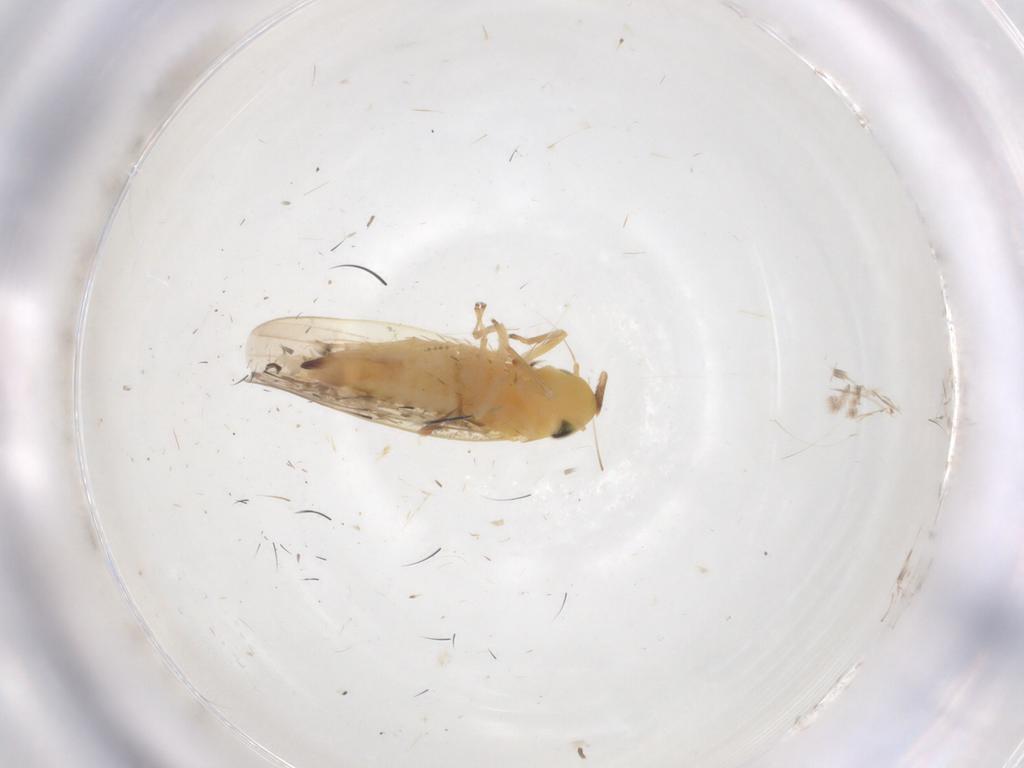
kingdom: Animalia
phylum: Arthropoda
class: Insecta
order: Hemiptera
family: Cicadellidae
